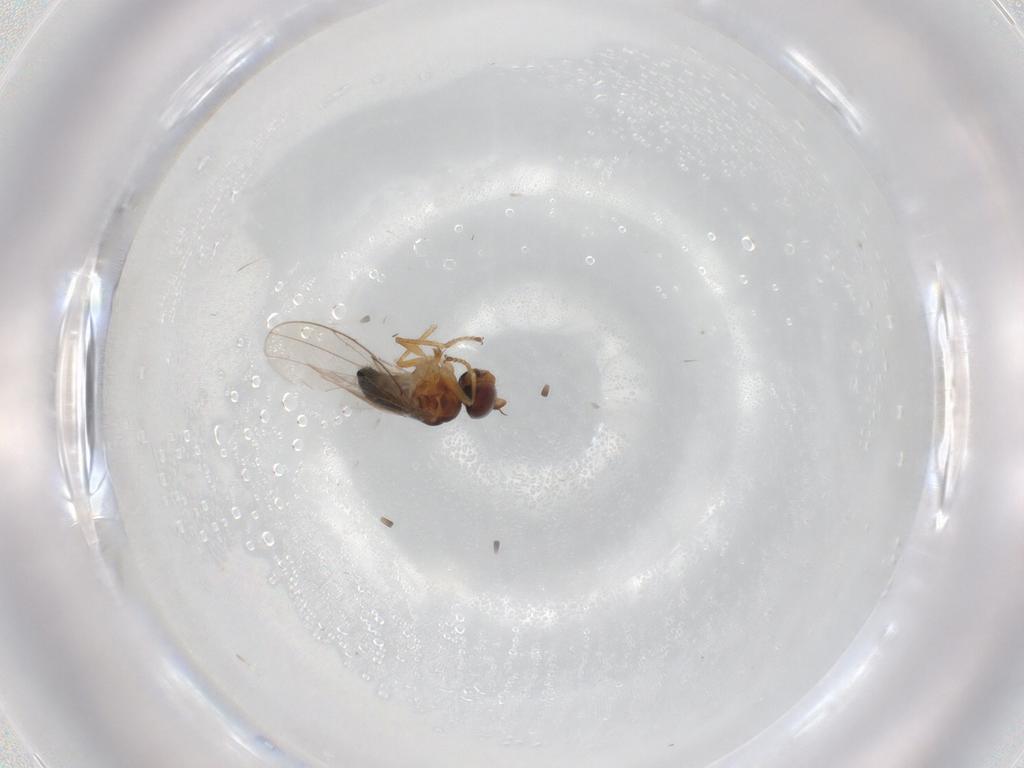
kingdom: Animalia
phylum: Arthropoda
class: Insecta
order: Diptera
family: Ephydridae
